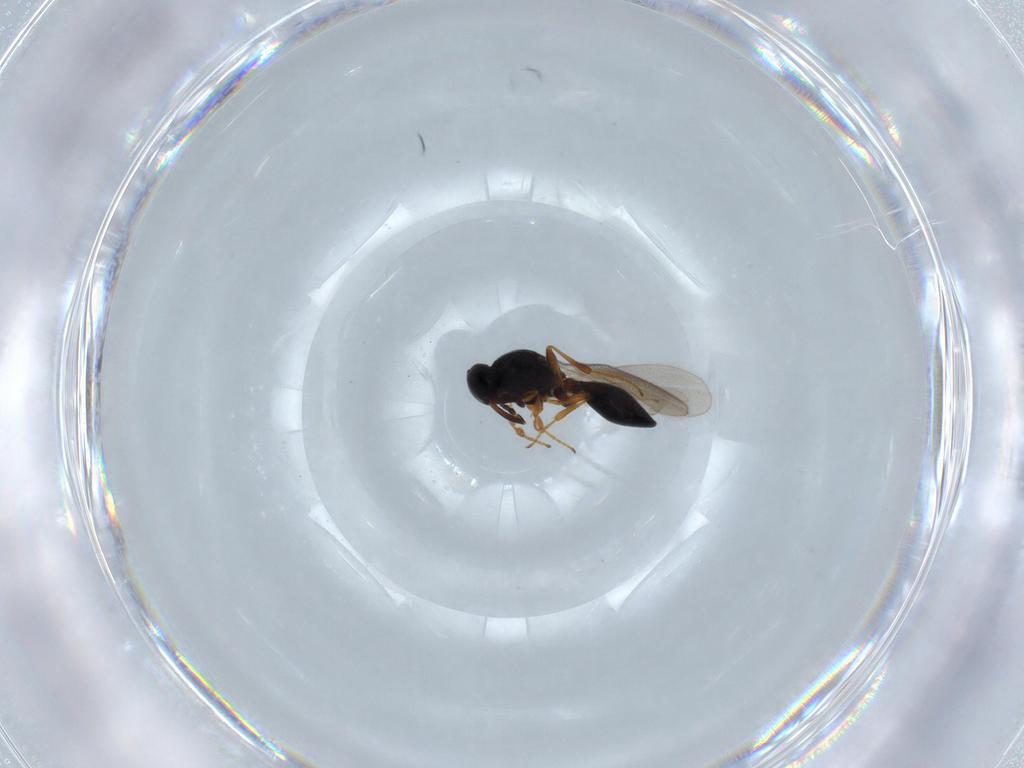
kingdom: Animalia
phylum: Arthropoda
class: Insecta
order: Hymenoptera
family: Platygastridae
